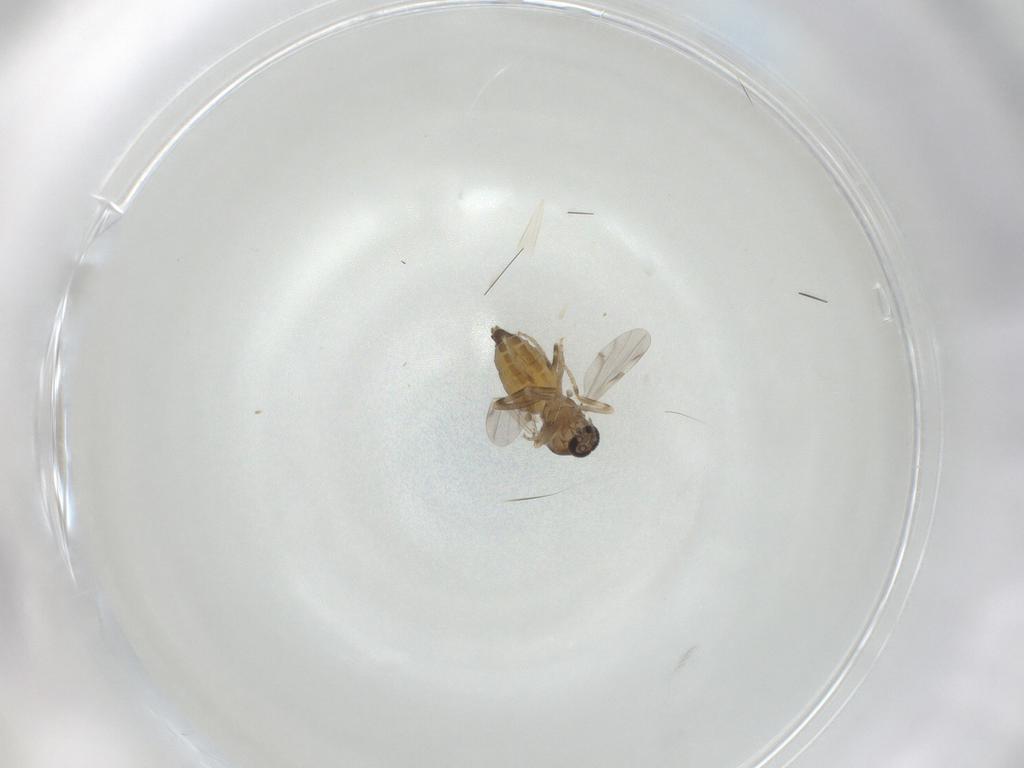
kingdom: Animalia
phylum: Arthropoda
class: Insecta
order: Diptera
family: Ceratopogonidae
